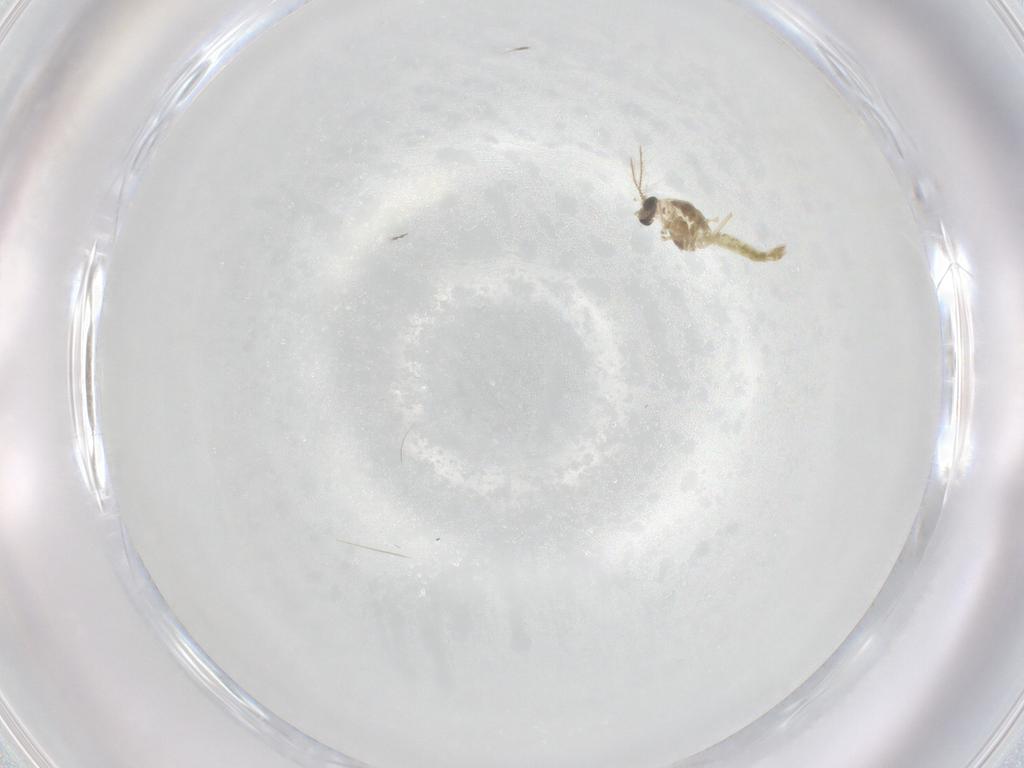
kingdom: Animalia
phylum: Arthropoda
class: Insecta
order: Diptera
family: Chironomidae
